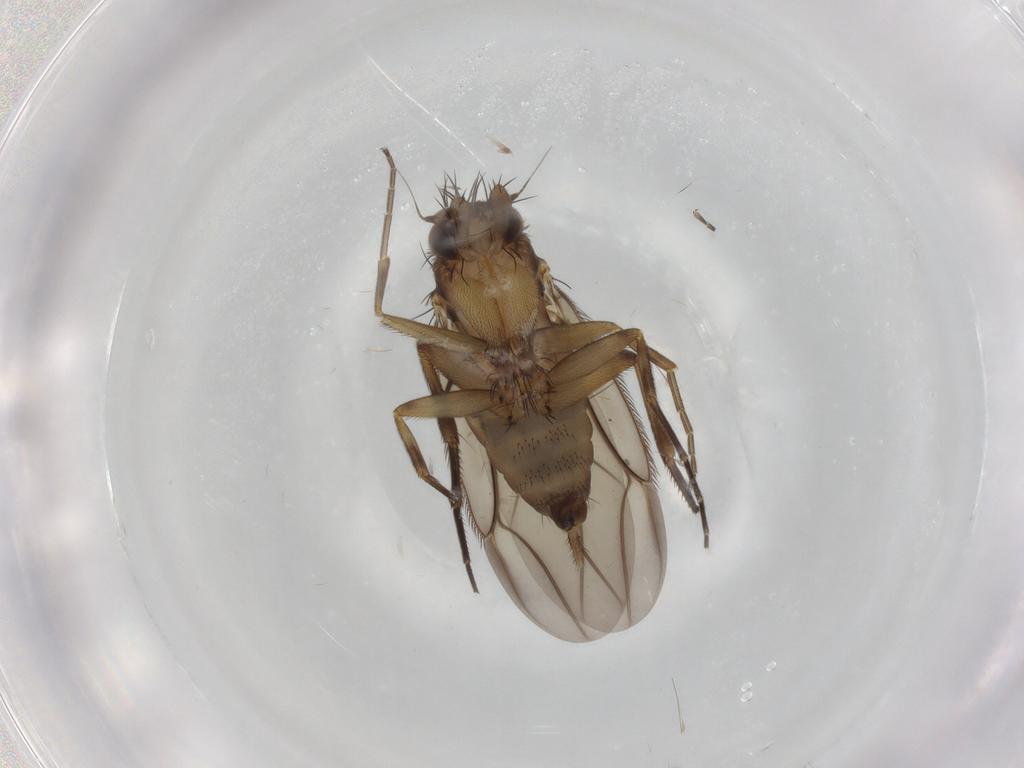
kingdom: Animalia
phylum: Arthropoda
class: Insecta
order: Diptera
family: Phoridae
